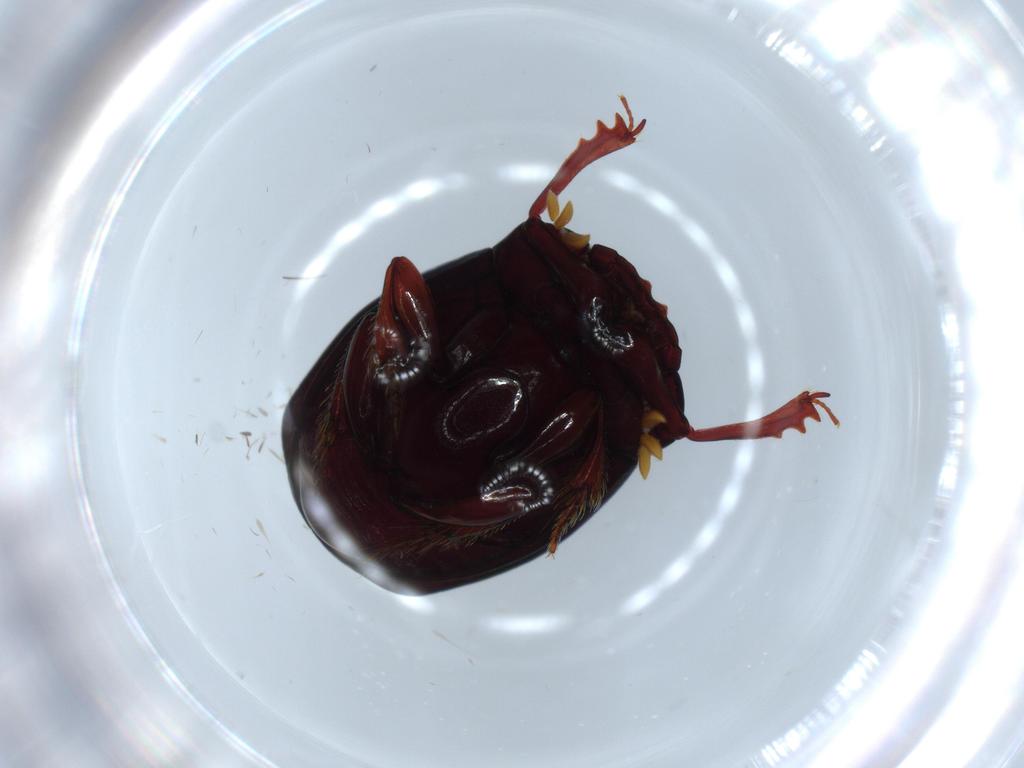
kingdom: Animalia
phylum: Arthropoda
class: Insecta
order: Coleoptera
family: Scarabaeidae
